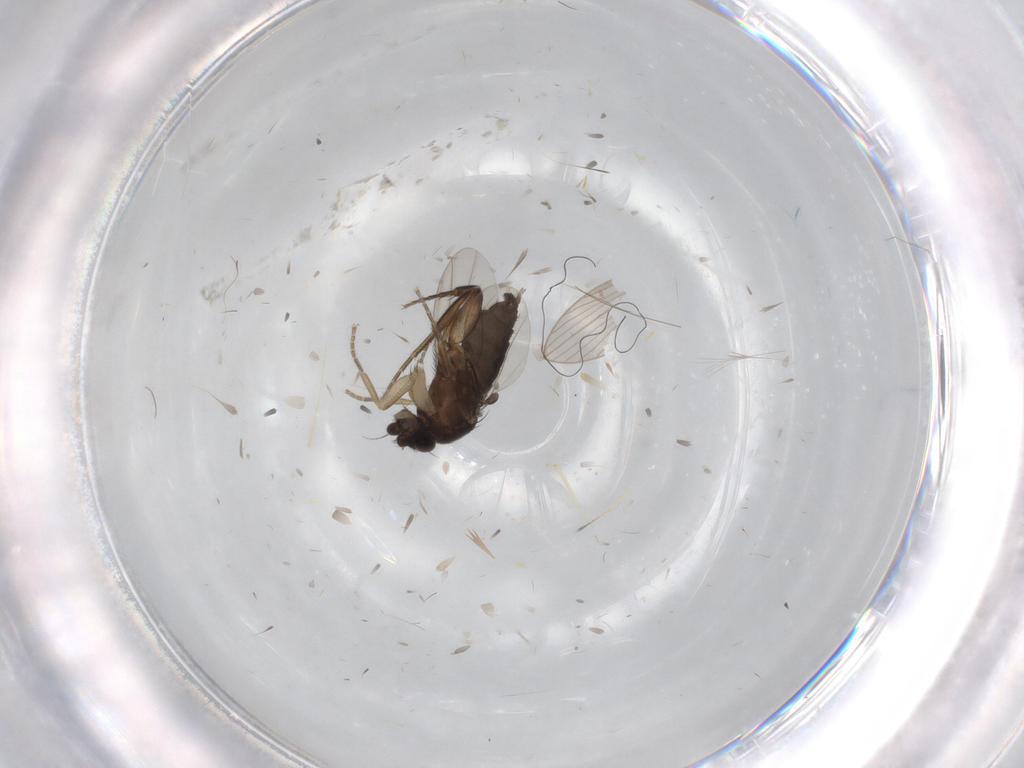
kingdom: Animalia
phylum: Arthropoda
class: Insecta
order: Diptera
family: Phoridae
